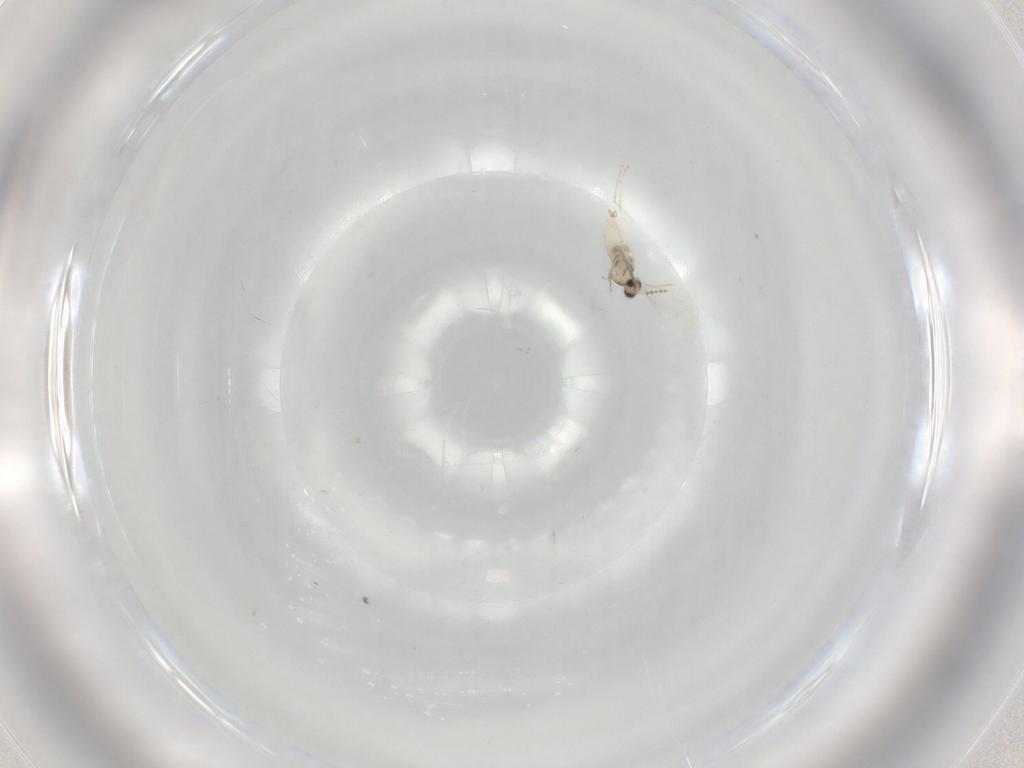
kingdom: Animalia
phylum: Arthropoda
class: Insecta
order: Diptera
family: Cecidomyiidae
